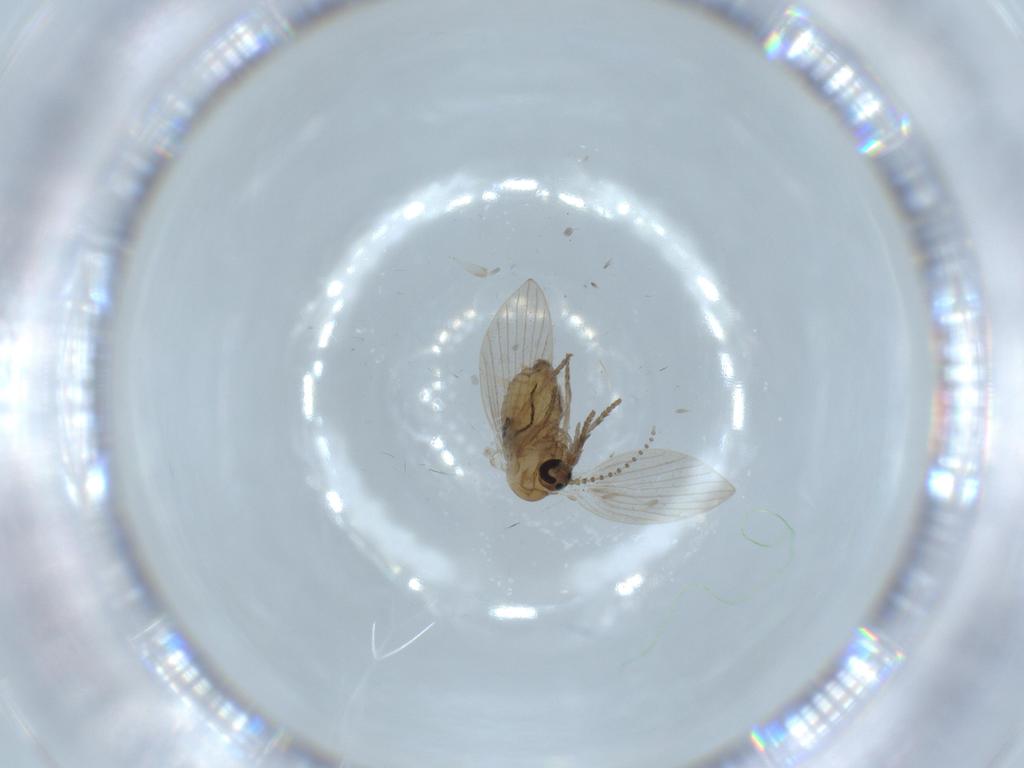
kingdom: Animalia
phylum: Arthropoda
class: Insecta
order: Diptera
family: Psychodidae
